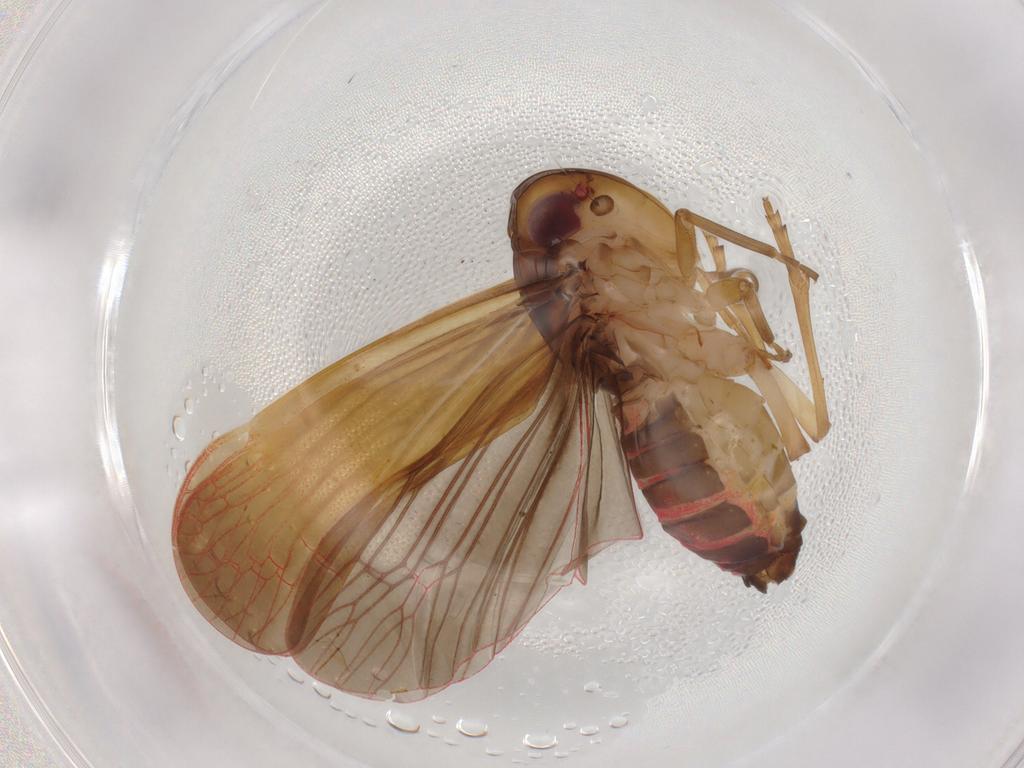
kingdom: Animalia
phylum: Arthropoda
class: Insecta
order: Hemiptera
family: Achilidae
